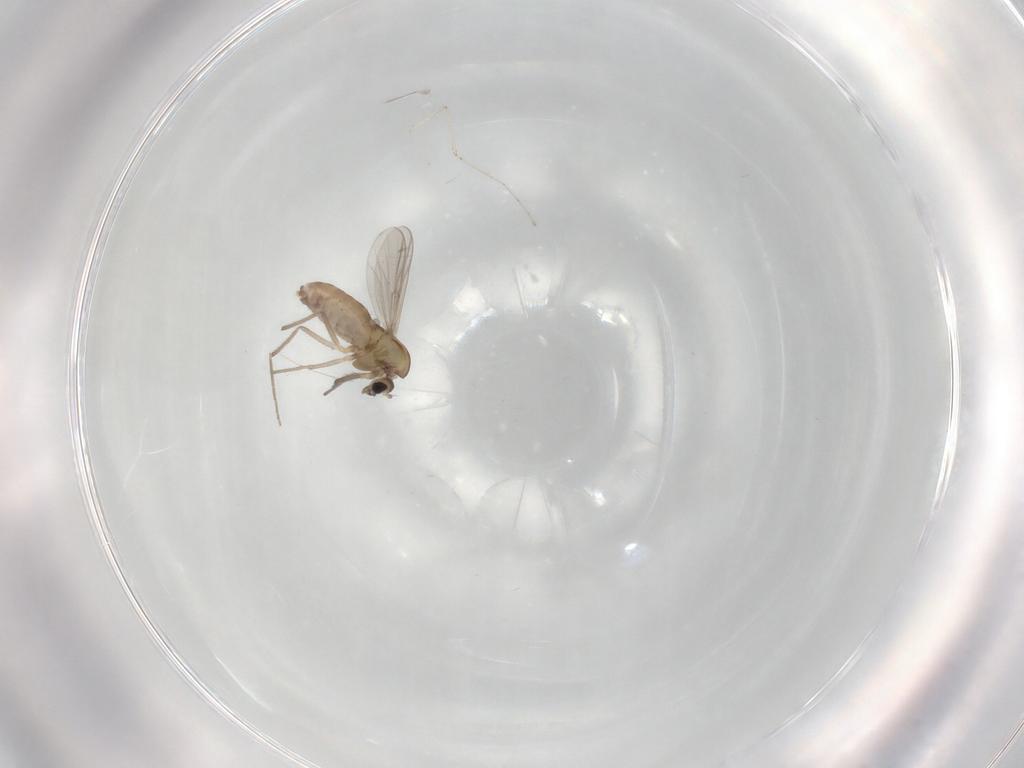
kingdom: Animalia
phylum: Arthropoda
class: Insecta
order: Diptera
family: Chironomidae
